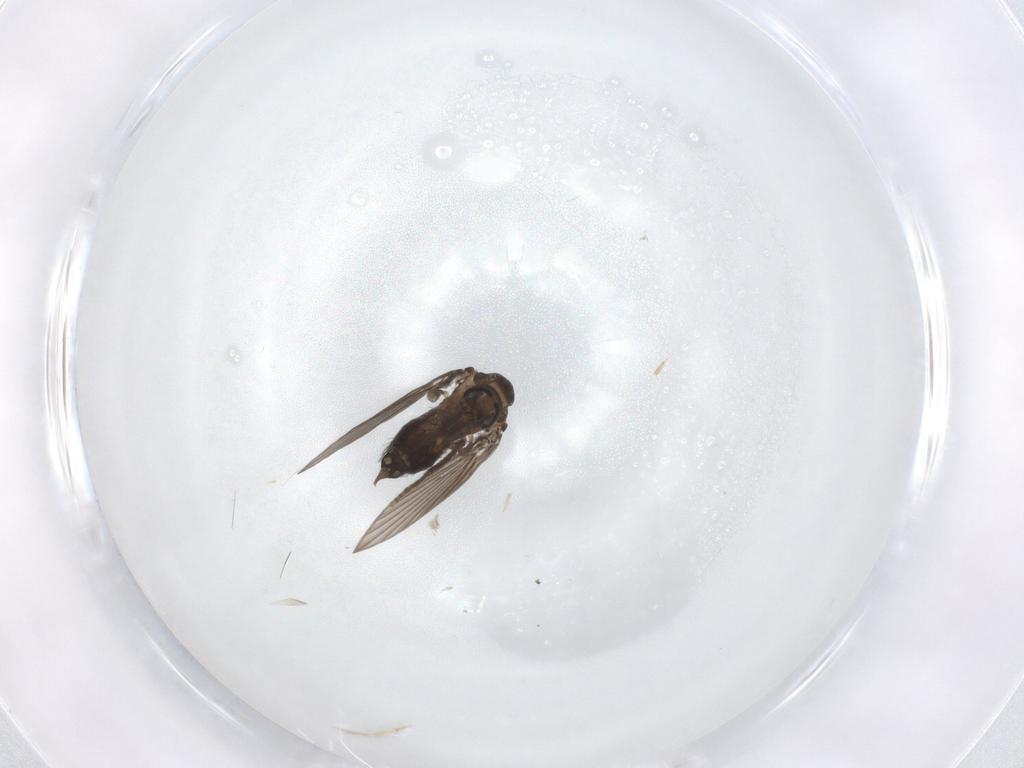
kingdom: Animalia
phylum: Arthropoda
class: Insecta
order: Diptera
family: Psychodidae
